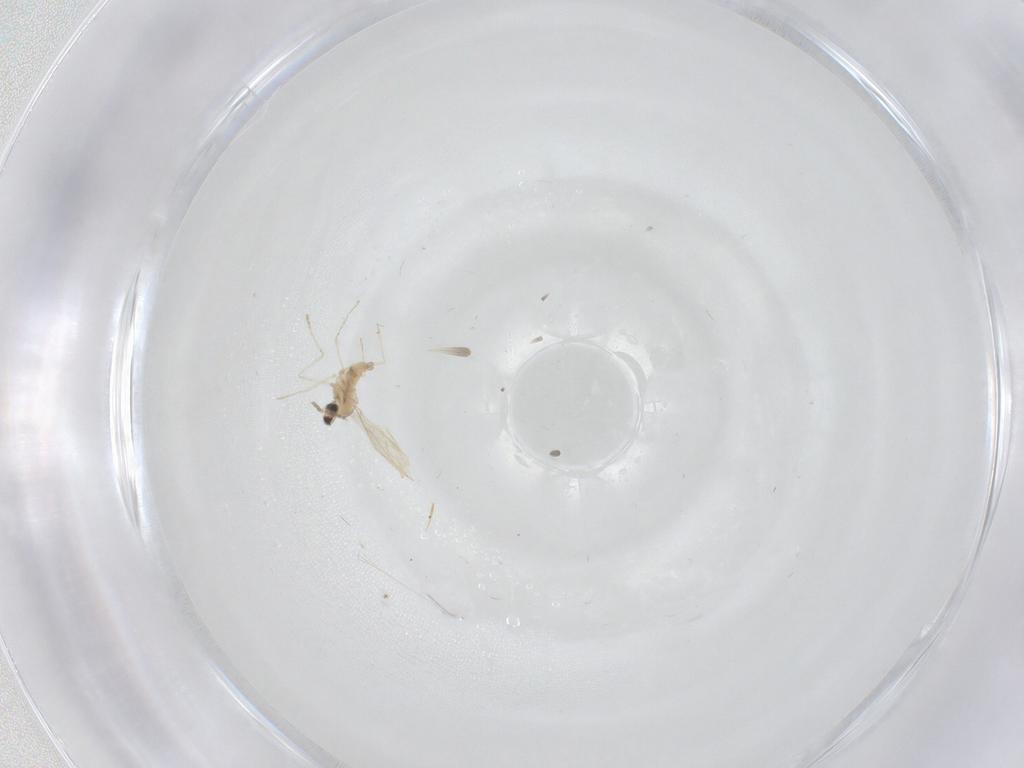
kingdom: Animalia
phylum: Arthropoda
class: Insecta
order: Diptera
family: Cecidomyiidae
